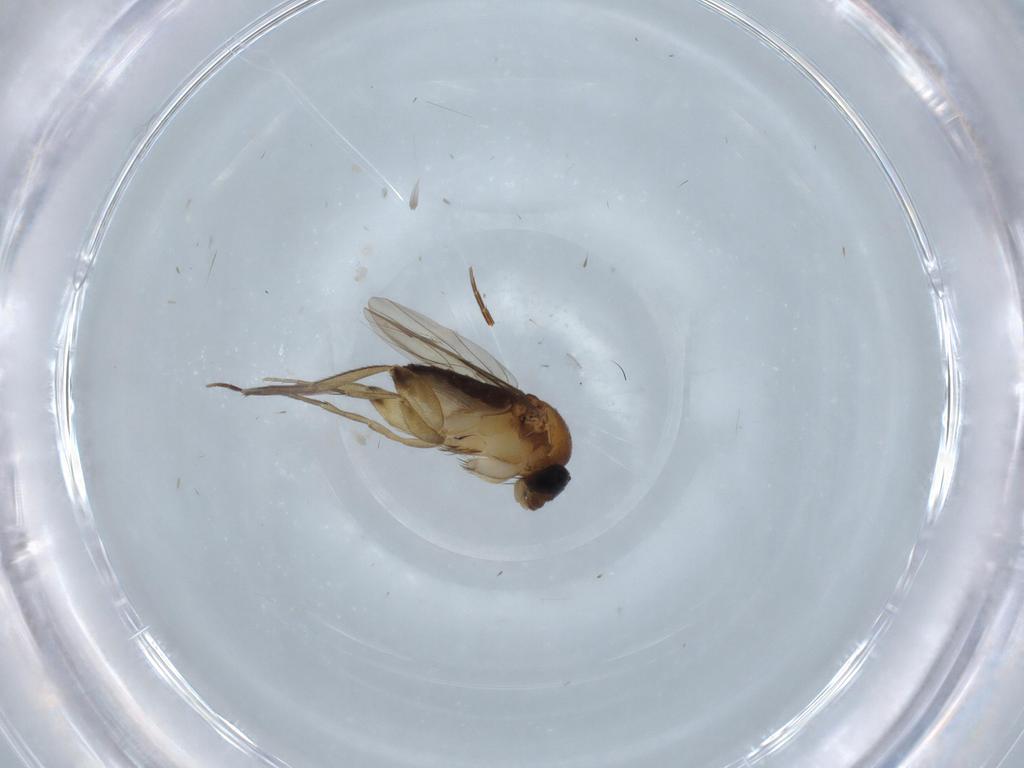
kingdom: Animalia
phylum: Arthropoda
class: Insecta
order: Diptera
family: Phoridae
